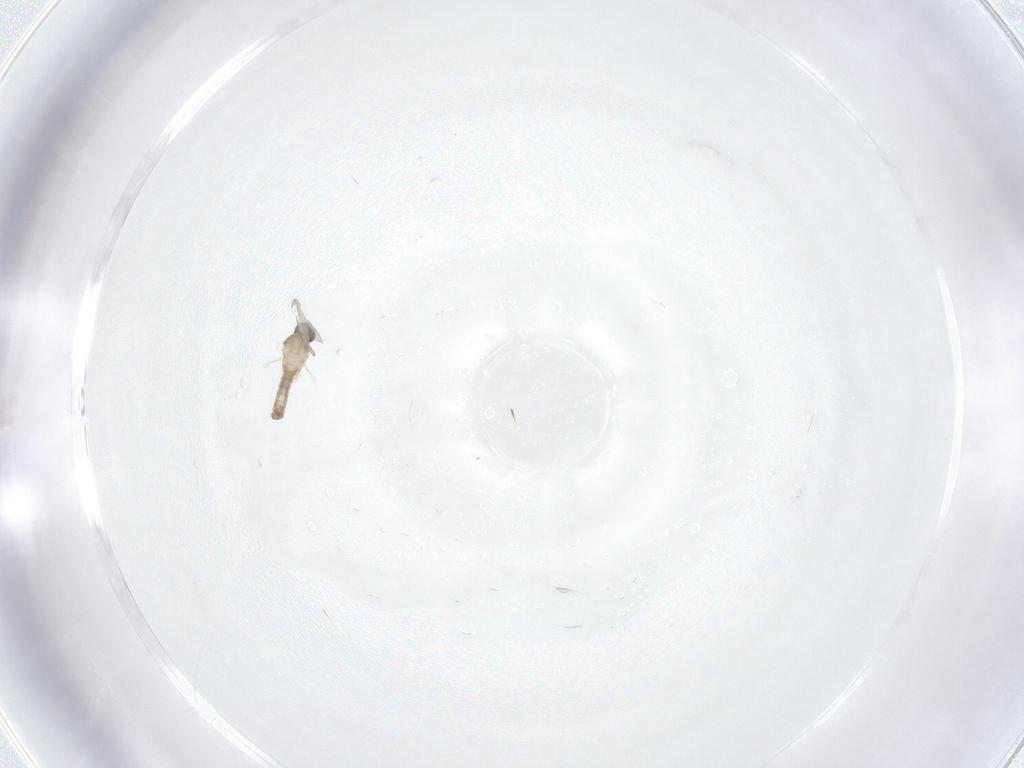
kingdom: Animalia
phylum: Arthropoda
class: Insecta
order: Diptera
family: Cecidomyiidae
